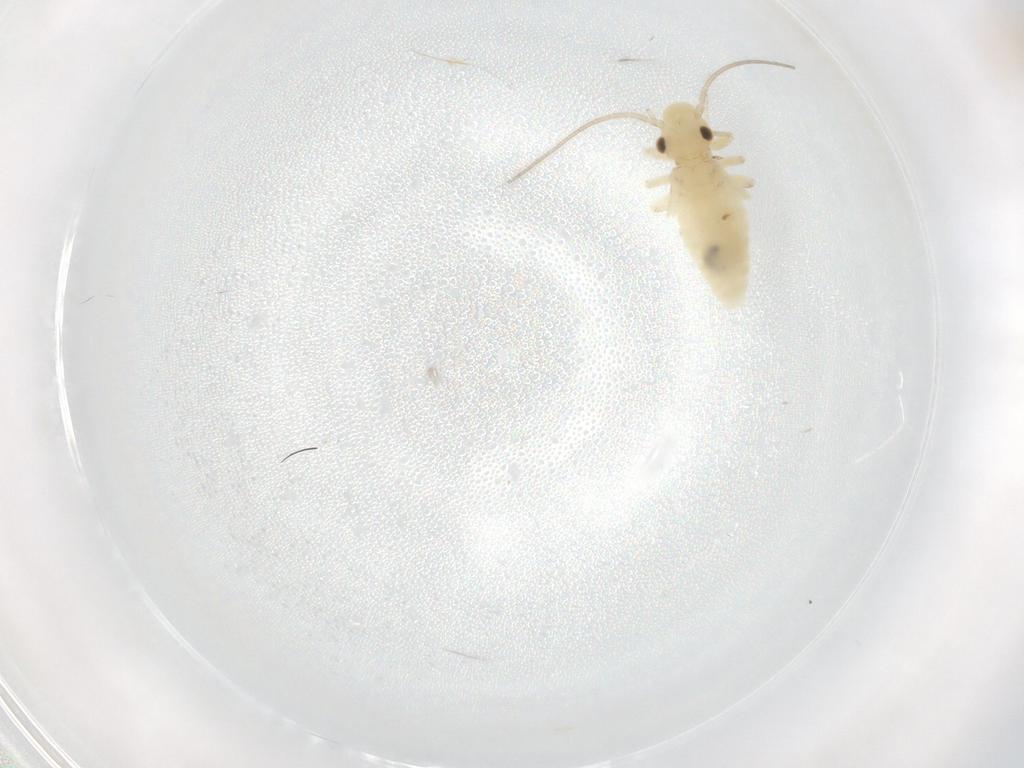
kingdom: Animalia
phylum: Arthropoda
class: Insecta
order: Psocodea
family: Caeciliusidae
